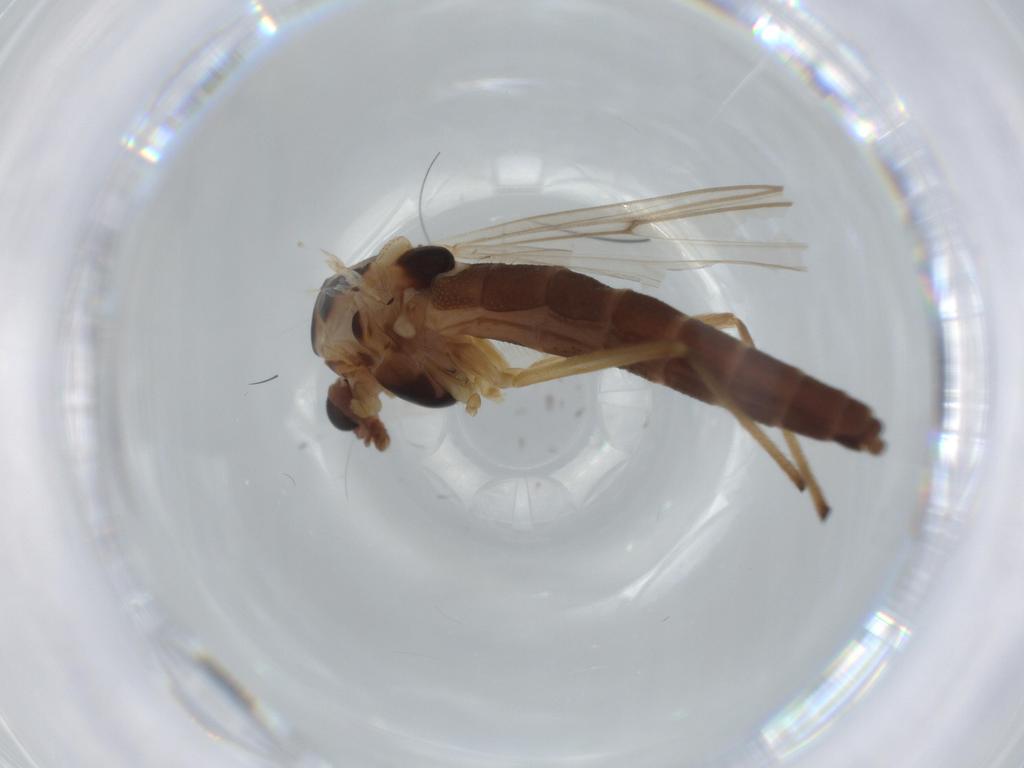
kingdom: Animalia
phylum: Arthropoda
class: Insecta
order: Diptera
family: Chironomidae
